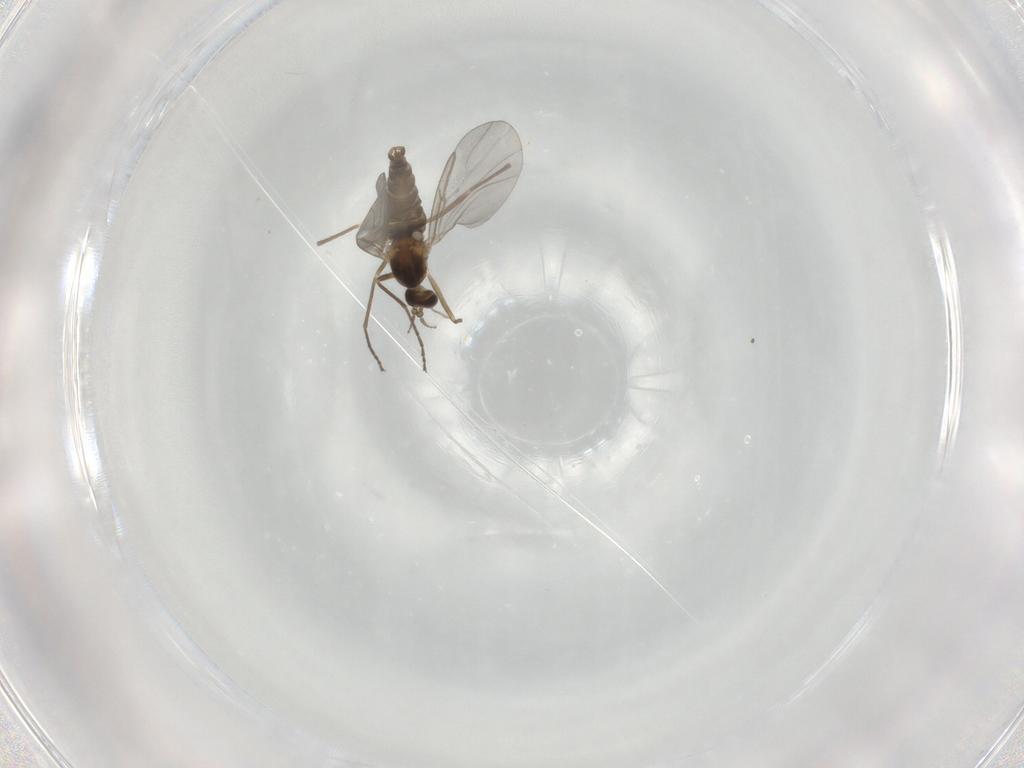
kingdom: Animalia
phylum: Arthropoda
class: Insecta
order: Diptera
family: Cecidomyiidae
